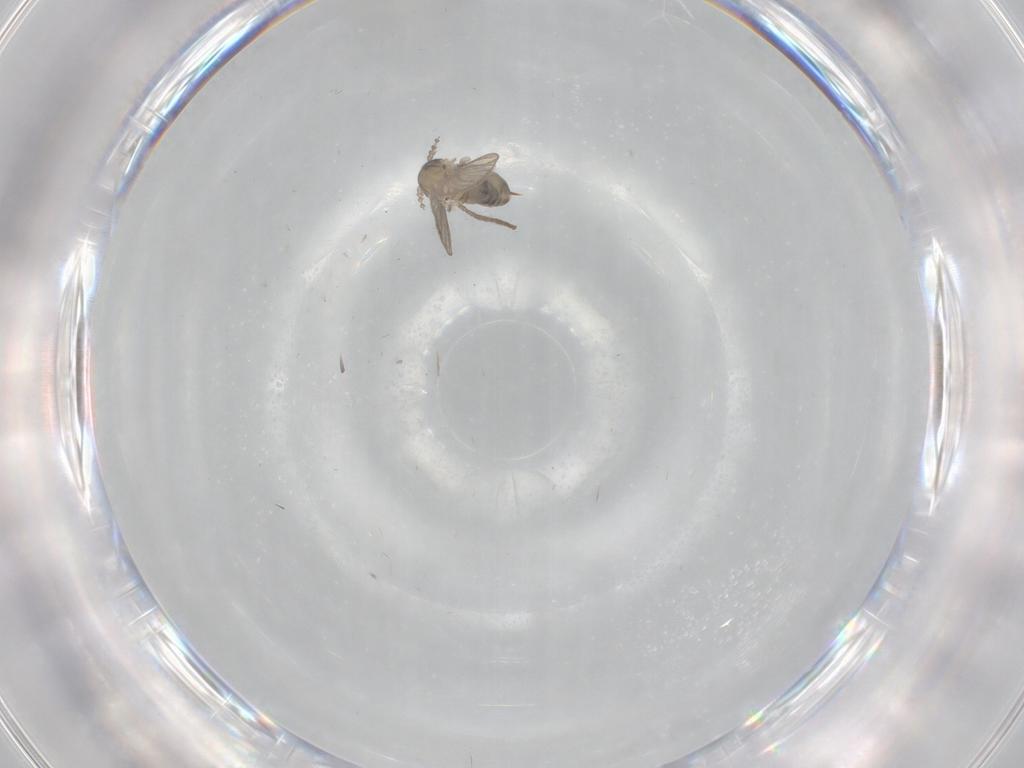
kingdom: Animalia
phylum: Arthropoda
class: Insecta
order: Diptera
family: Psychodidae
